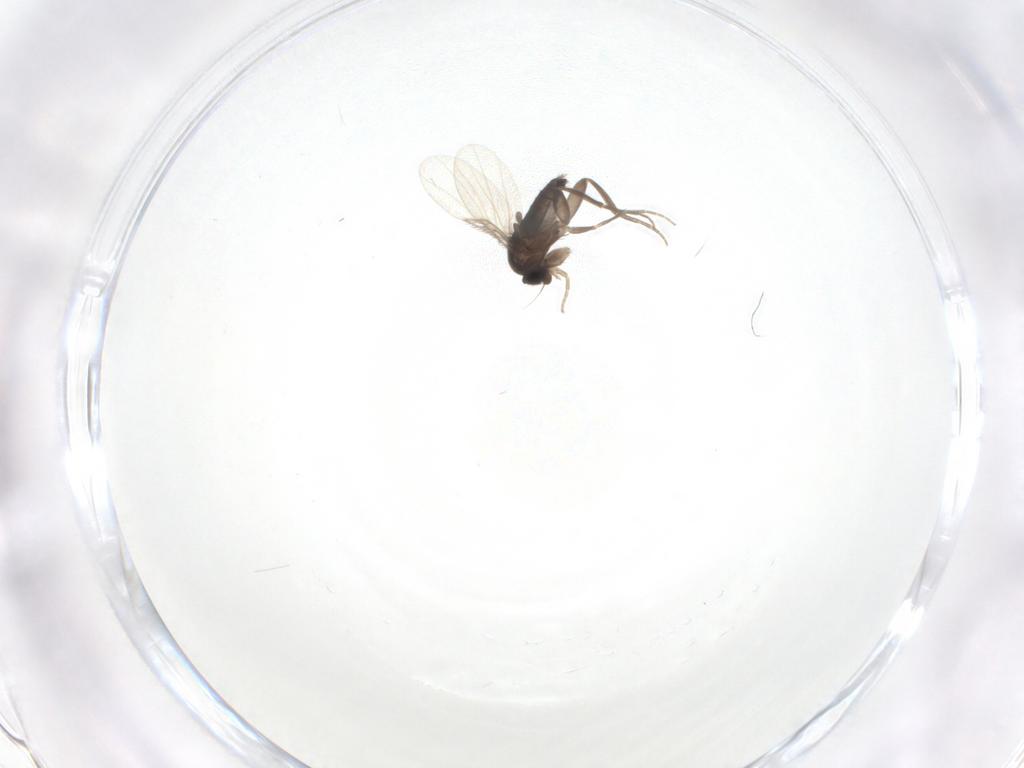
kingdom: Animalia
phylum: Arthropoda
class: Insecta
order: Diptera
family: Phoridae
